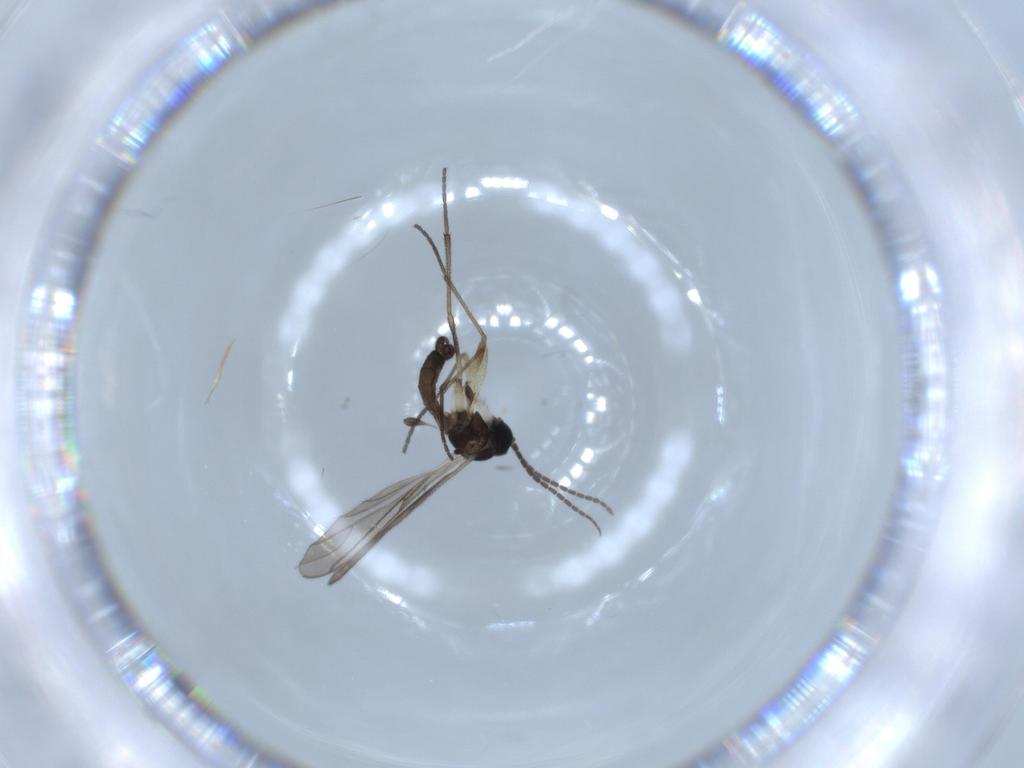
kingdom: Animalia
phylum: Arthropoda
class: Insecta
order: Diptera
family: Sciaridae
